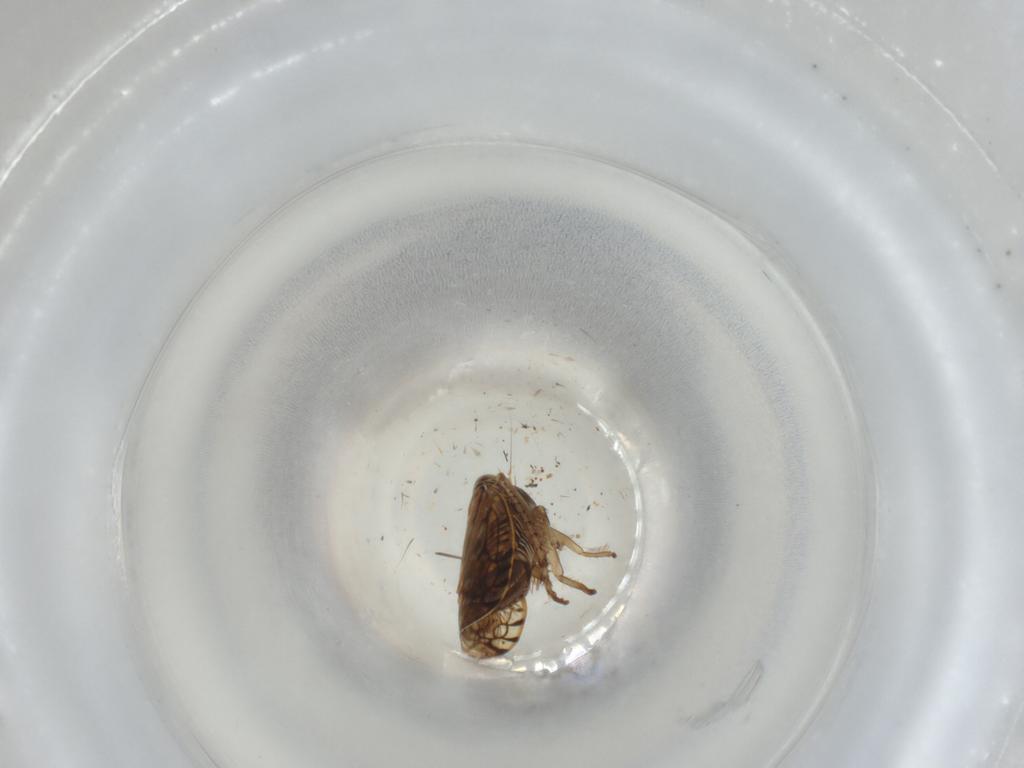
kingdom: Animalia
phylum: Arthropoda
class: Insecta
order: Hemiptera
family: Cicadellidae
